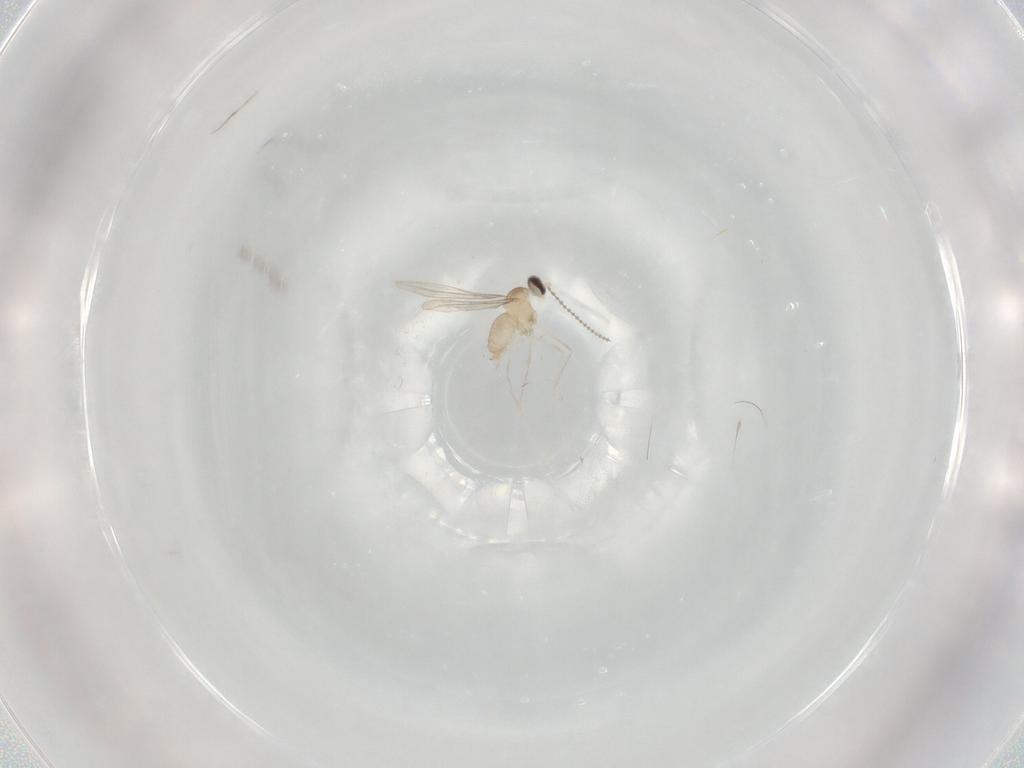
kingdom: Animalia
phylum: Arthropoda
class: Insecta
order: Diptera
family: Cecidomyiidae
